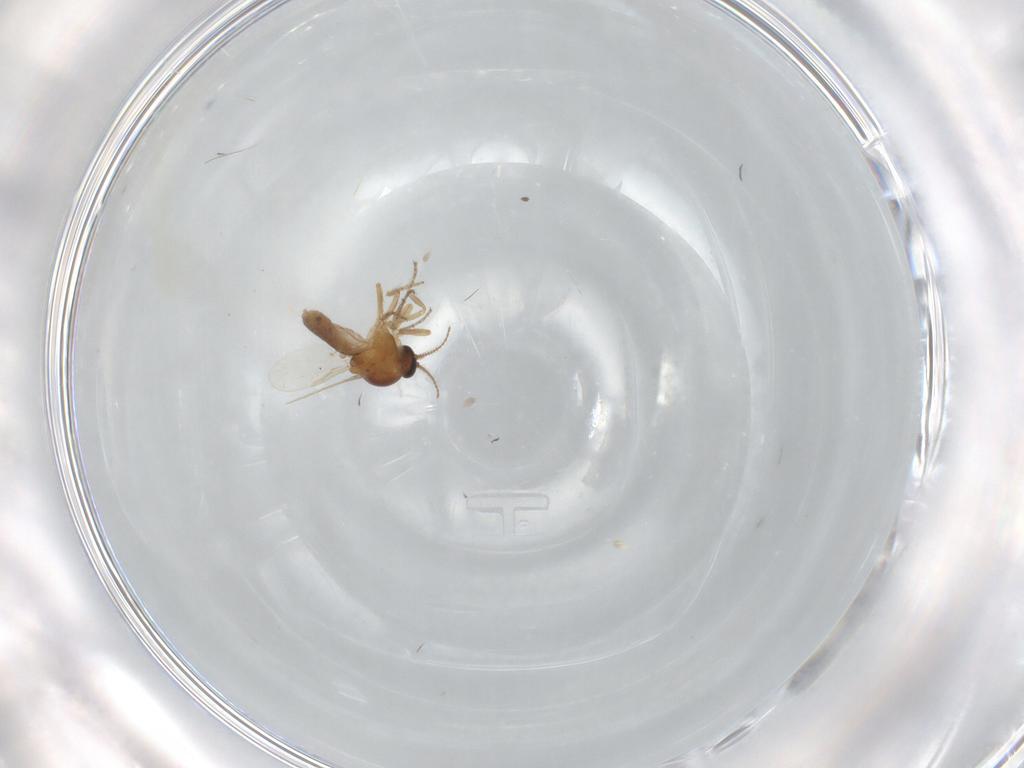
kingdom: Animalia
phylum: Arthropoda
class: Insecta
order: Diptera
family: Ceratopogonidae
